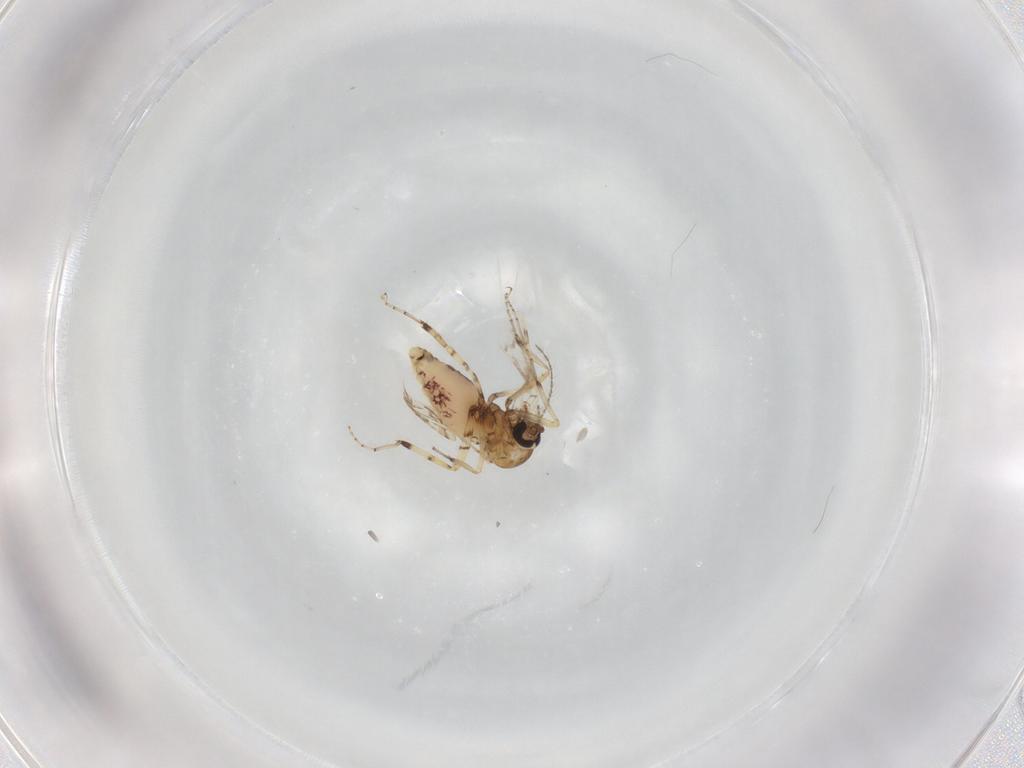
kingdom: Animalia
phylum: Arthropoda
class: Insecta
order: Diptera
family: Ceratopogonidae
